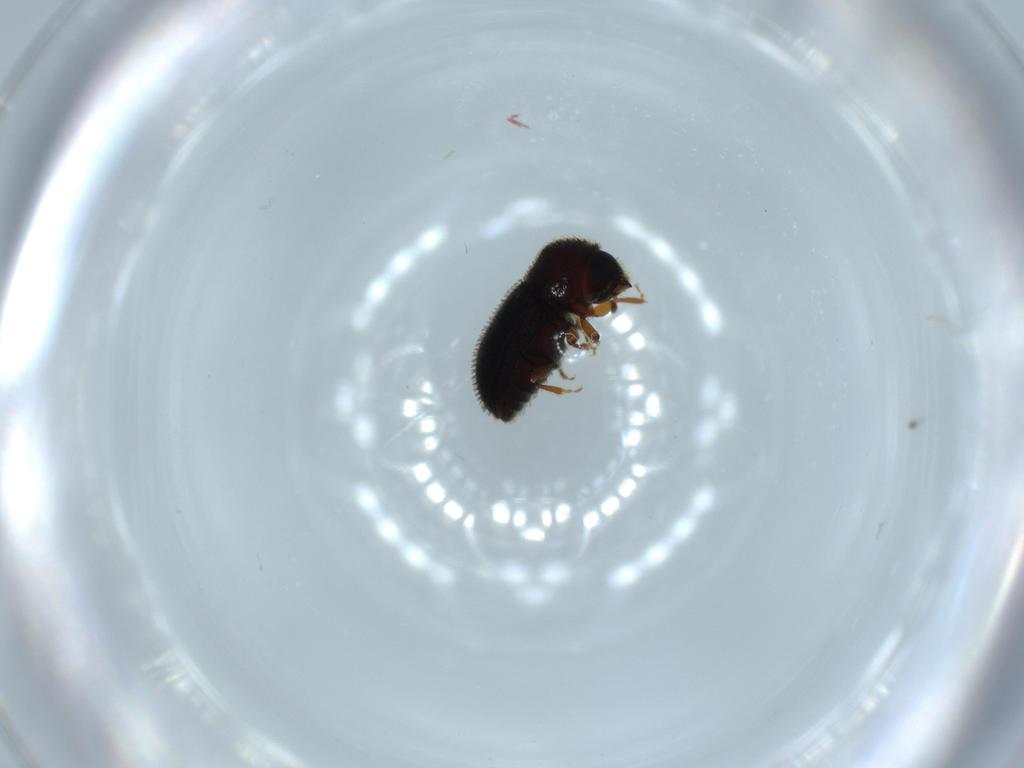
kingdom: Animalia
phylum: Arthropoda
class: Insecta
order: Coleoptera
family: Curculionidae
